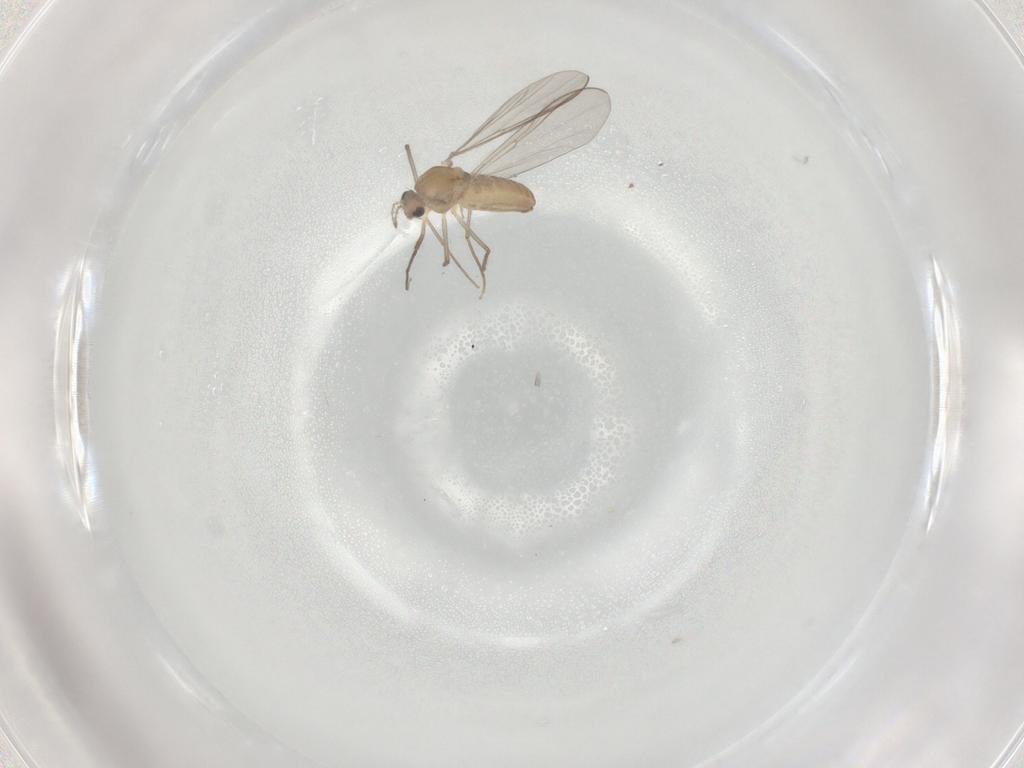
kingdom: Animalia
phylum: Arthropoda
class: Insecta
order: Diptera
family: Chironomidae
